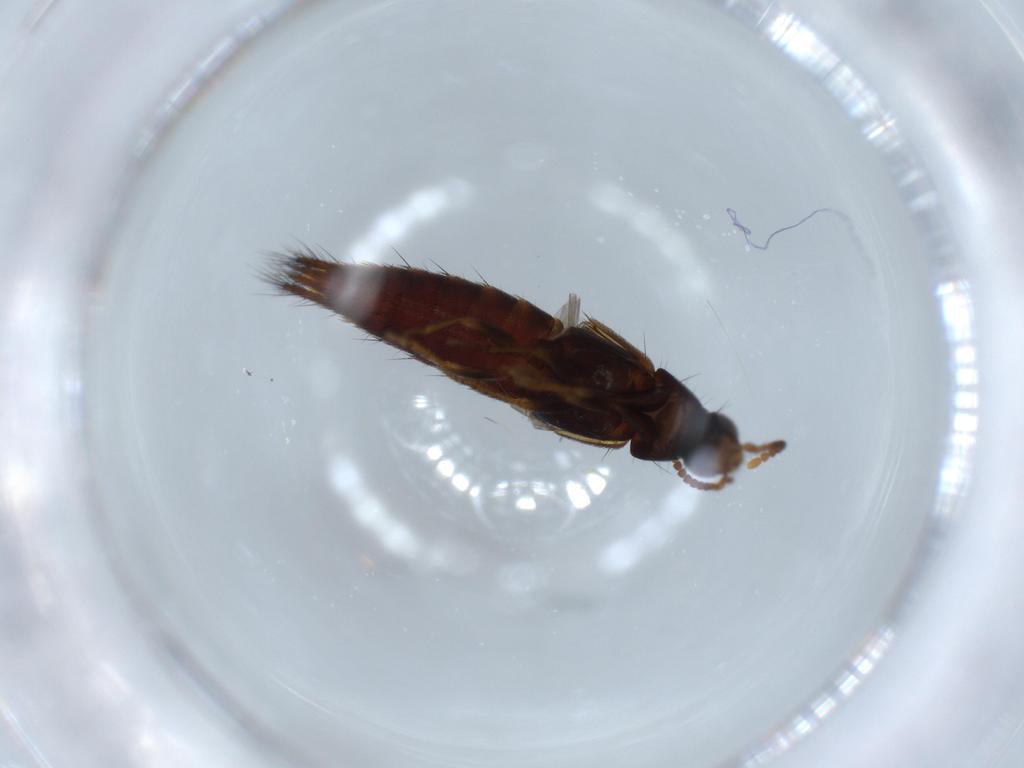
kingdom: Animalia
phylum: Arthropoda
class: Insecta
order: Coleoptera
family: Staphylinidae
